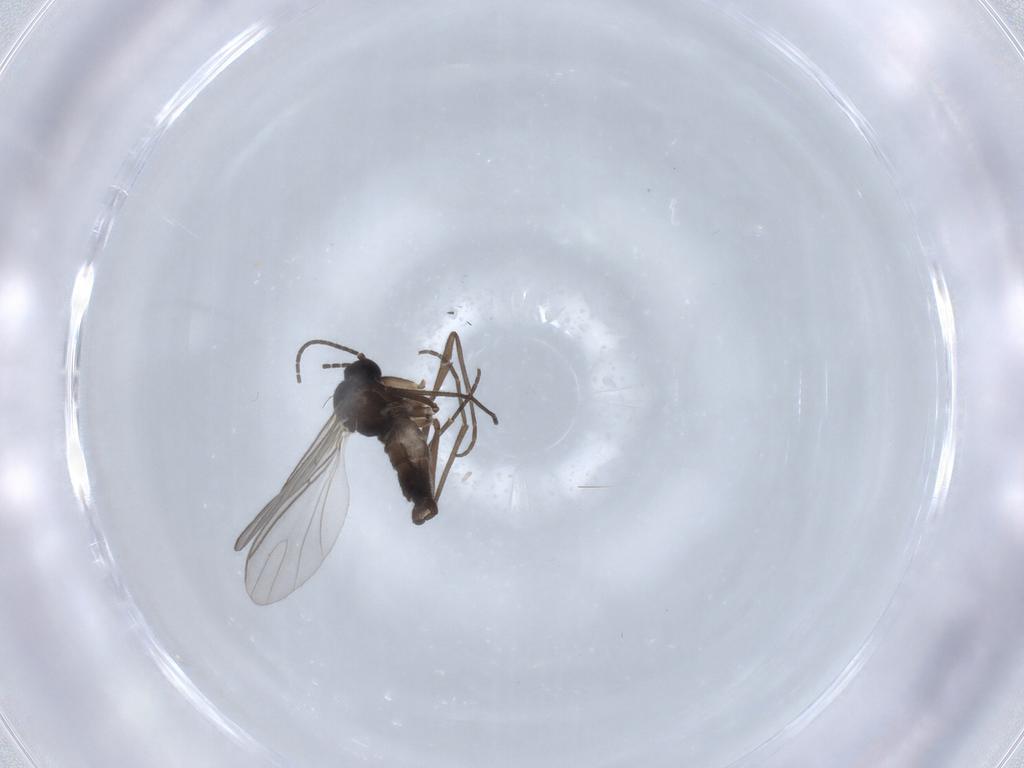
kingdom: Animalia
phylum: Arthropoda
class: Insecta
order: Diptera
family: Sciaridae
